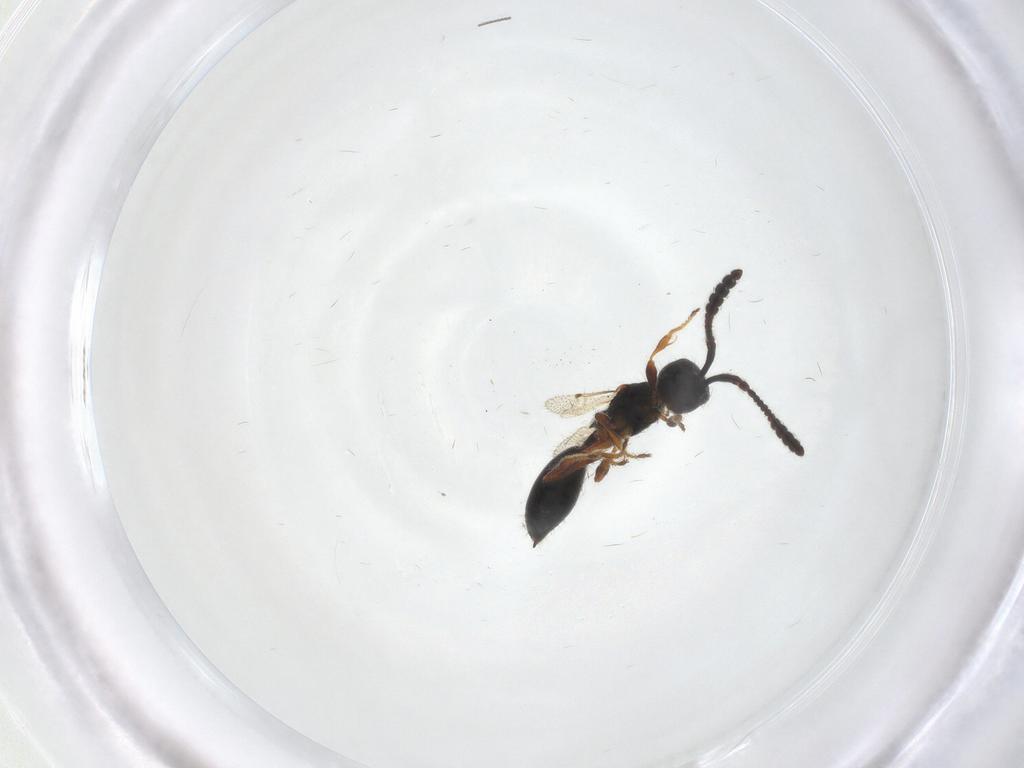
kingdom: Animalia
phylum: Arthropoda
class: Insecta
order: Hymenoptera
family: Diapriidae
